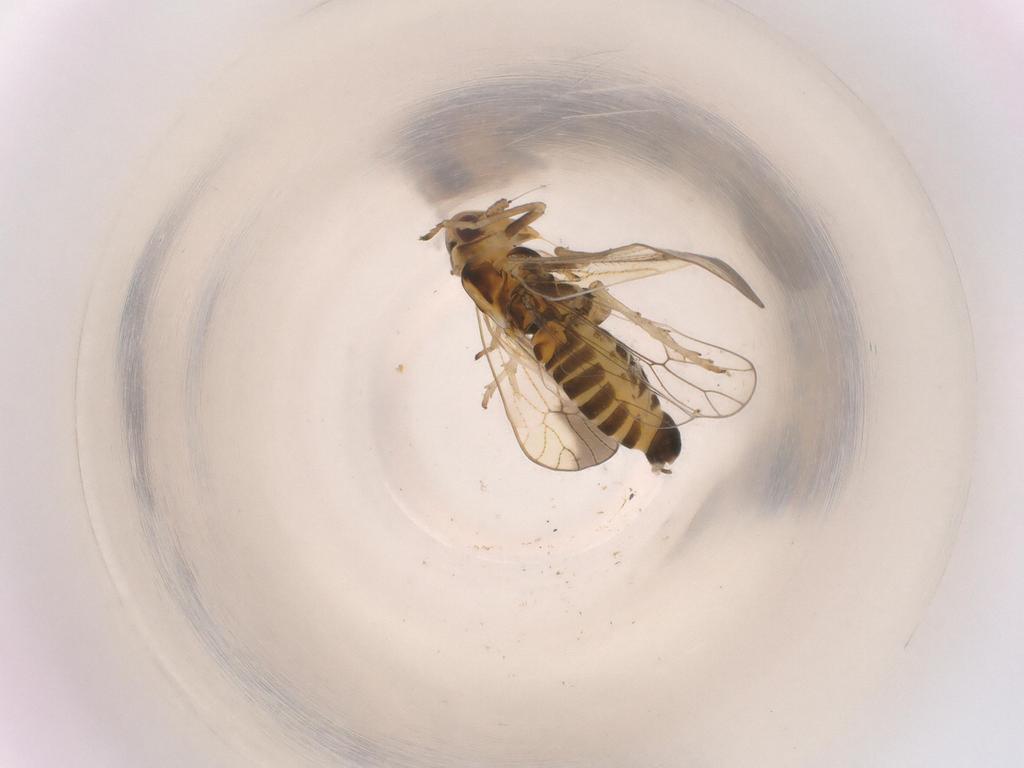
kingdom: Animalia
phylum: Arthropoda
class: Insecta
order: Hemiptera
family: Delphacidae
